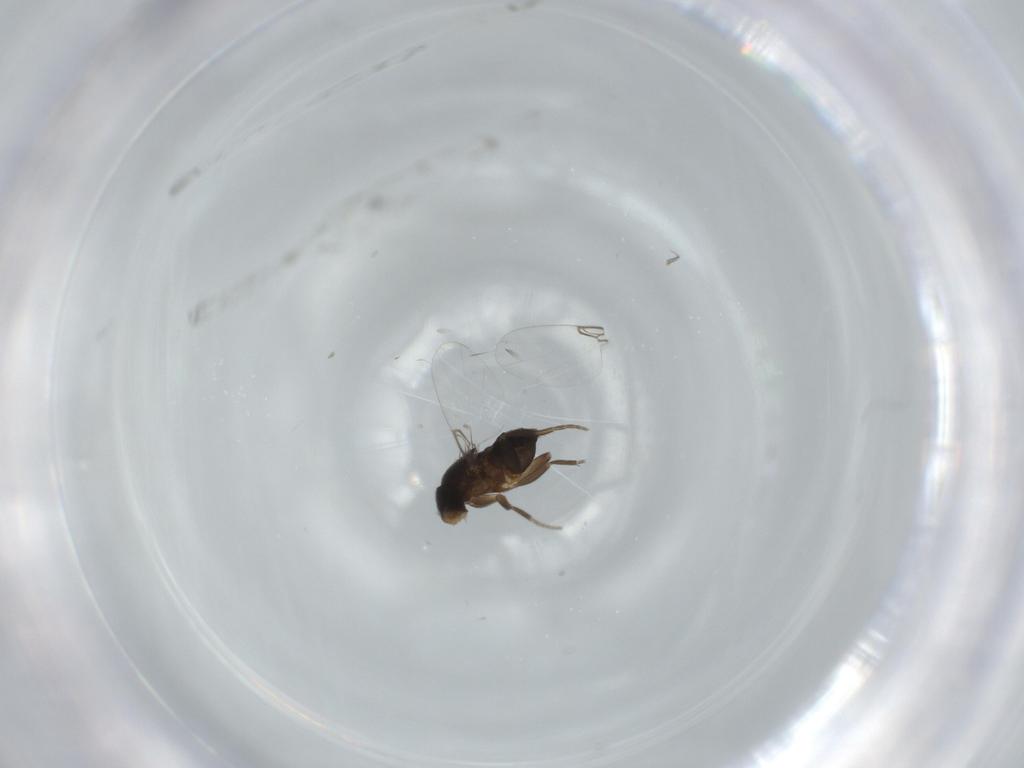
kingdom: Animalia
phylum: Arthropoda
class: Insecta
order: Diptera
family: Phoridae
